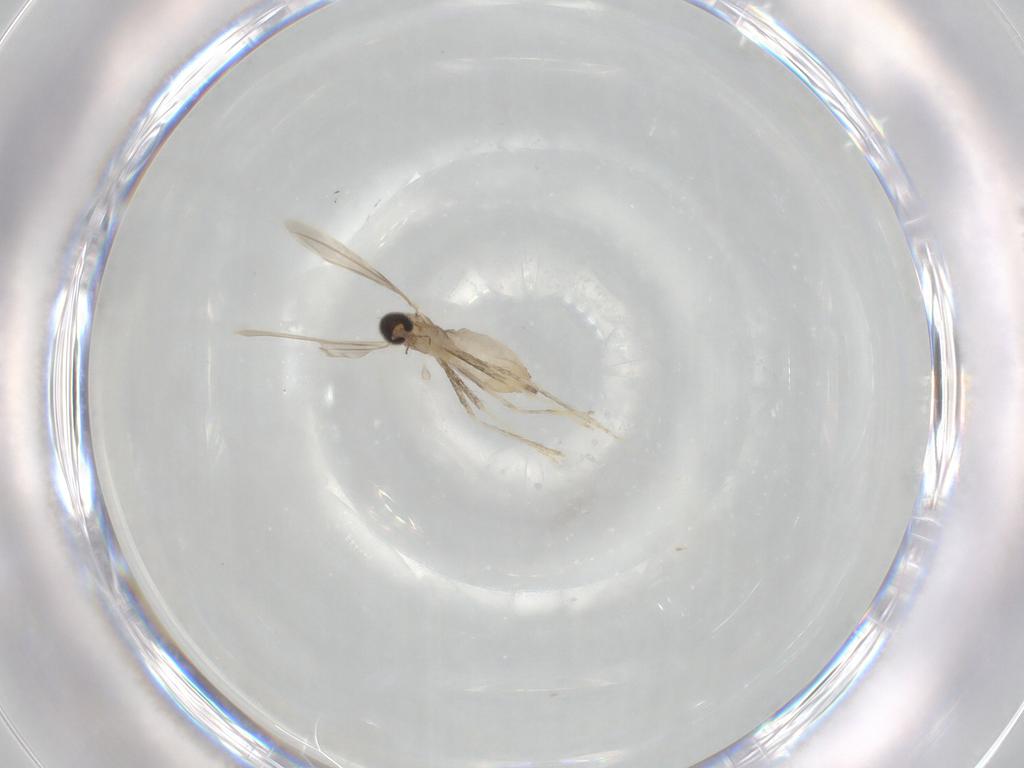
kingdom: Animalia
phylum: Arthropoda
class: Insecta
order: Diptera
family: Cecidomyiidae
